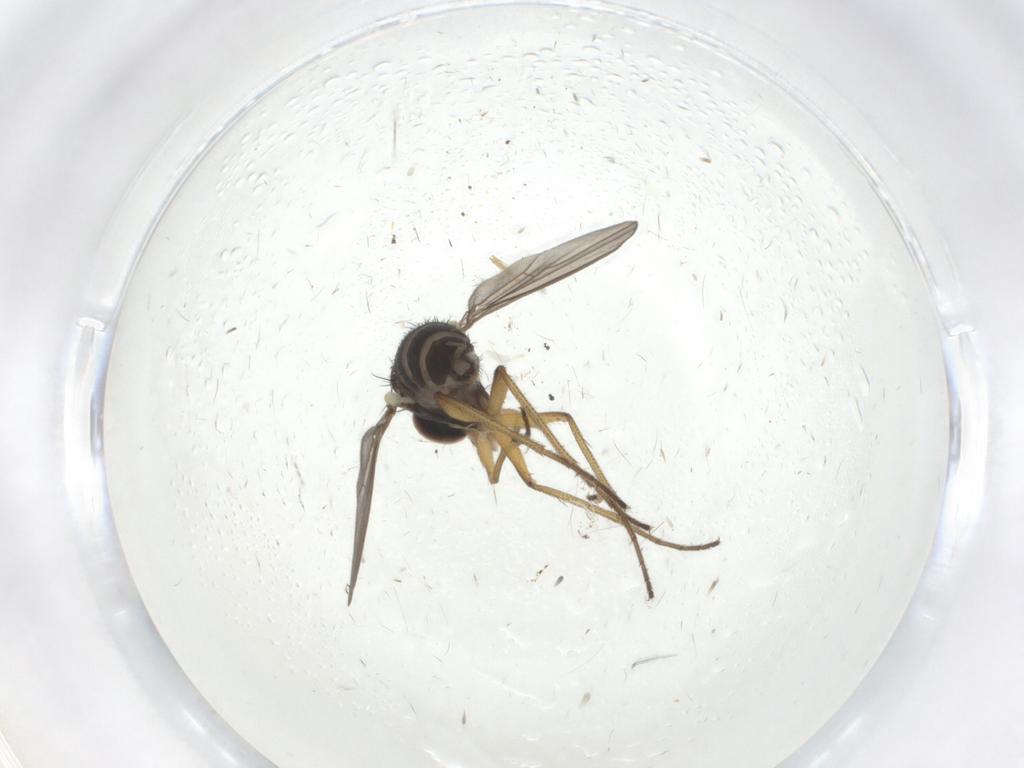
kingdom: Animalia
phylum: Arthropoda
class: Insecta
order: Diptera
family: Dolichopodidae
